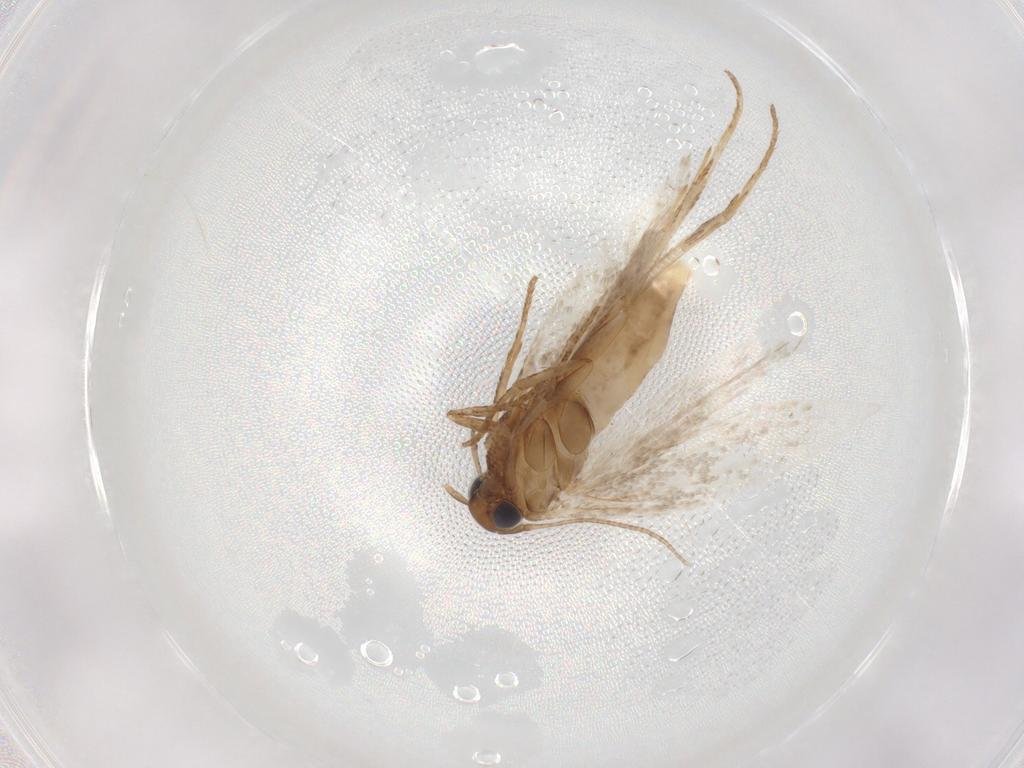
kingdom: Animalia
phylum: Arthropoda
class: Insecta
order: Lepidoptera
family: Gelechiidae
